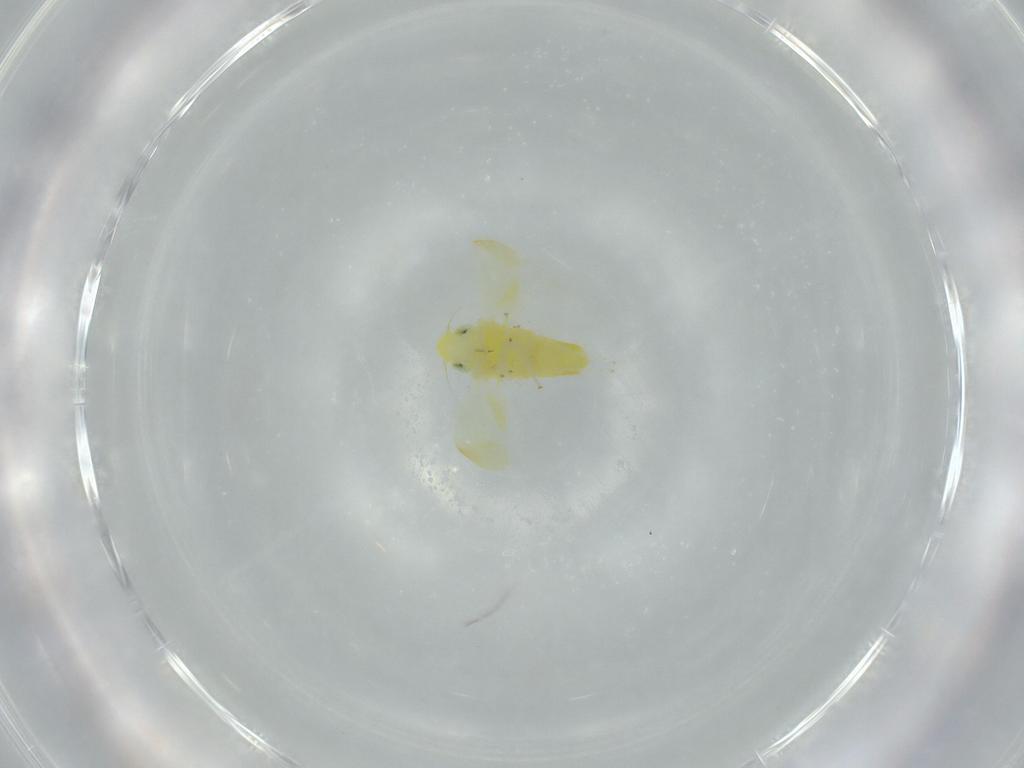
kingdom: Animalia
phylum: Arthropoda
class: Insecta
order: Hemiptera
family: Cicadellidae
